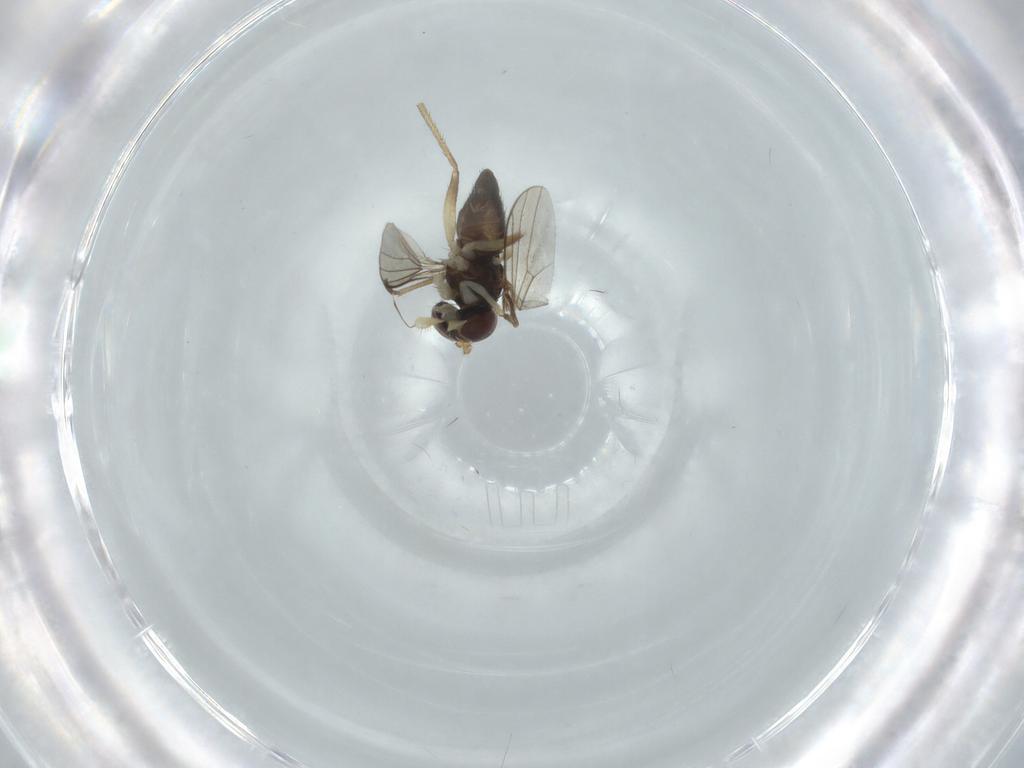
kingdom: Animalia
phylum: Arthropoda
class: Insecta
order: Diptera
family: Dolichopodidae
